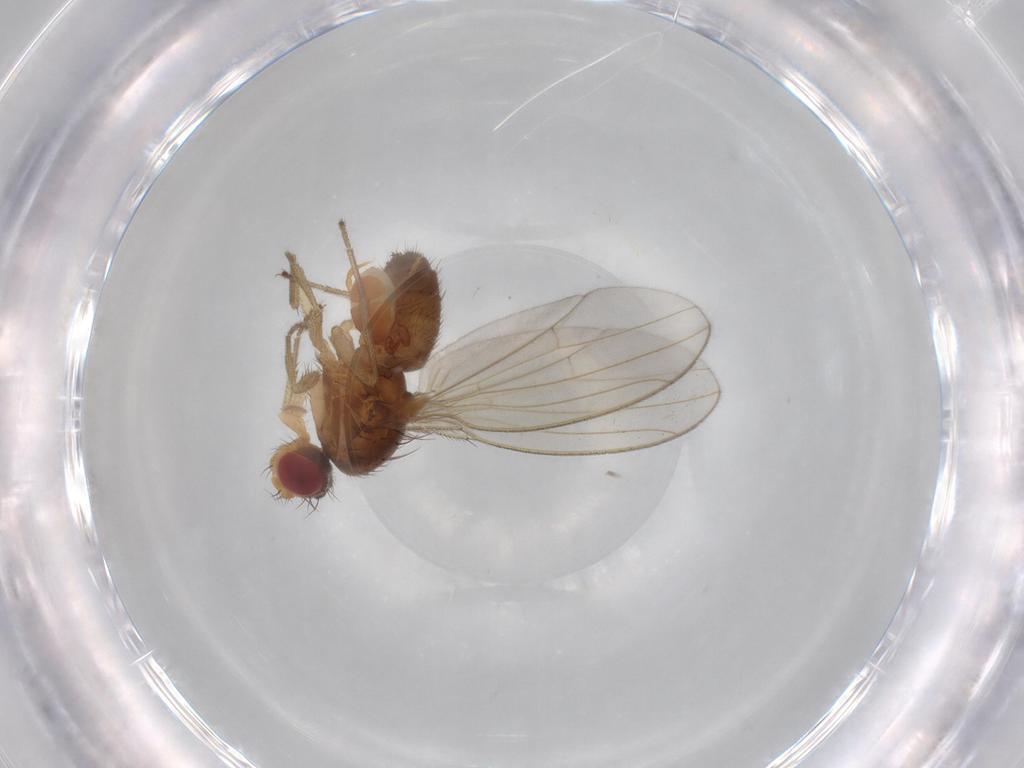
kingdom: Animalia
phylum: Arthropoda
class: Insecta
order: Diptera
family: Drosophilidae
